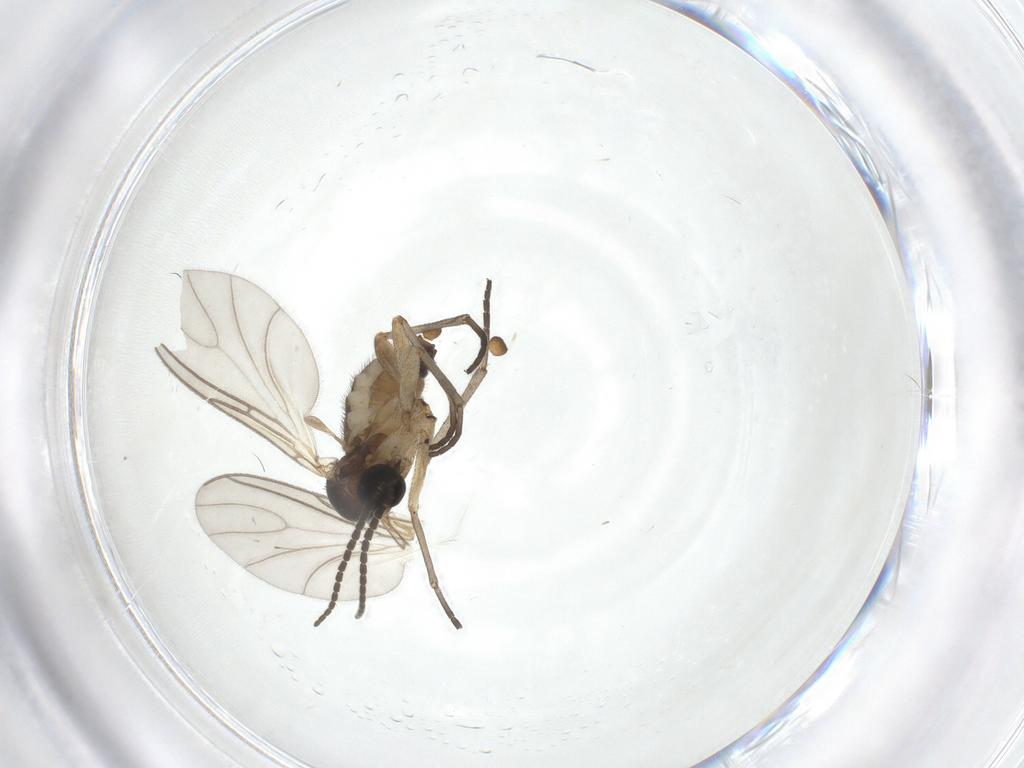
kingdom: Animalia
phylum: Arthropoda
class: Insecta
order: Diptera
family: Sciaridae
